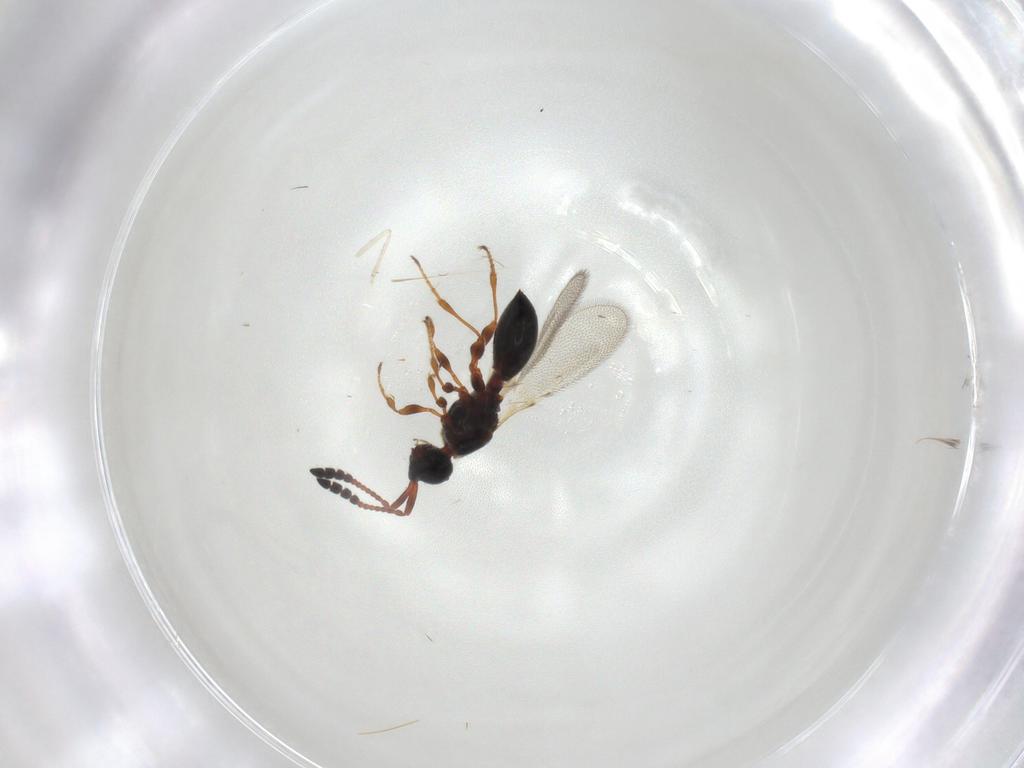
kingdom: Animalia
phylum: Arthropoda
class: Insecta
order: Hymenoptera
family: Diapriidae
